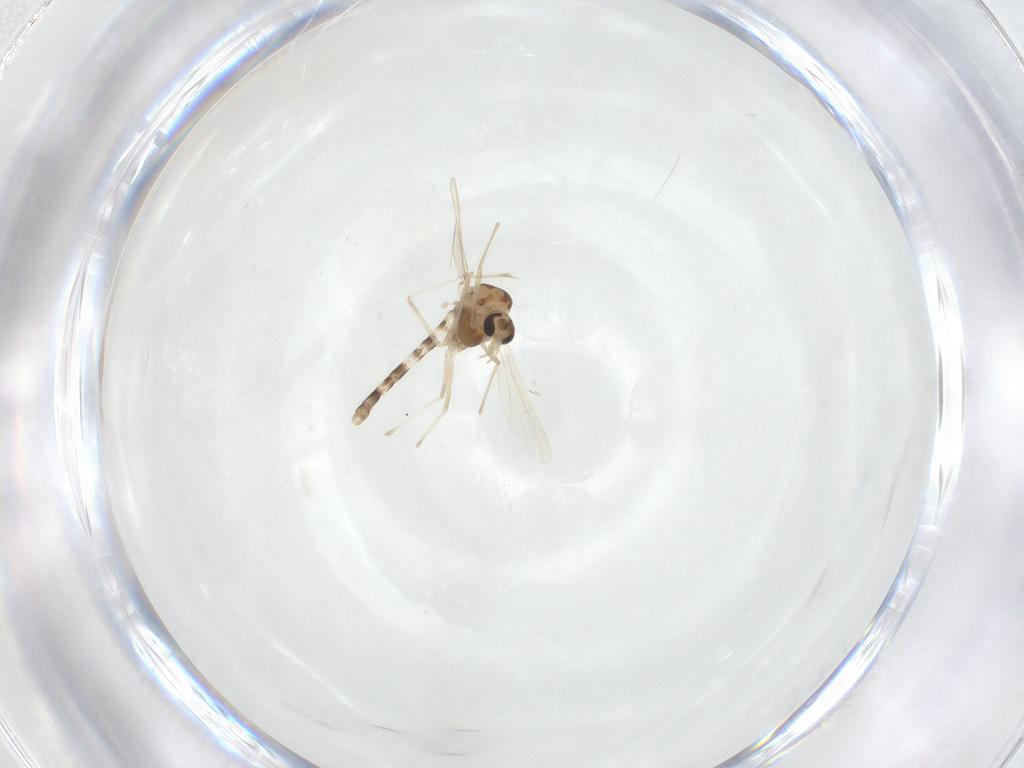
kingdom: Animalia
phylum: Arthropoda
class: Insecta
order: Diptera
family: Chironomidae
